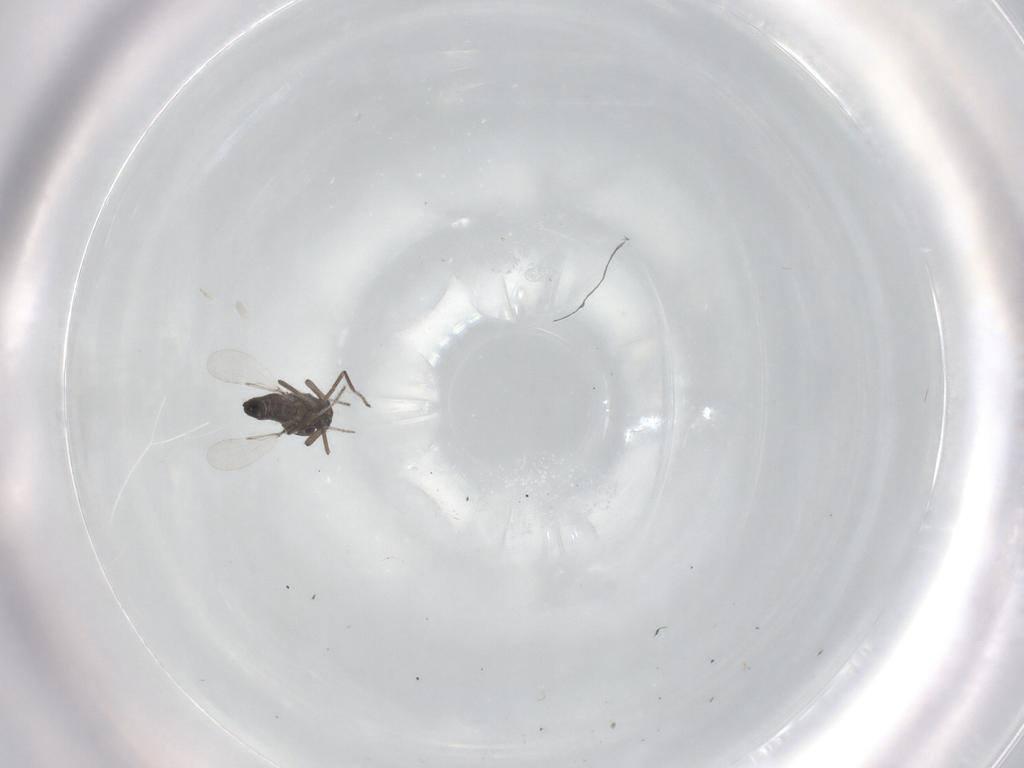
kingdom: Animalia
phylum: Arthropoda
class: Insecta
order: Diptera
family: Ceratopogonidae
